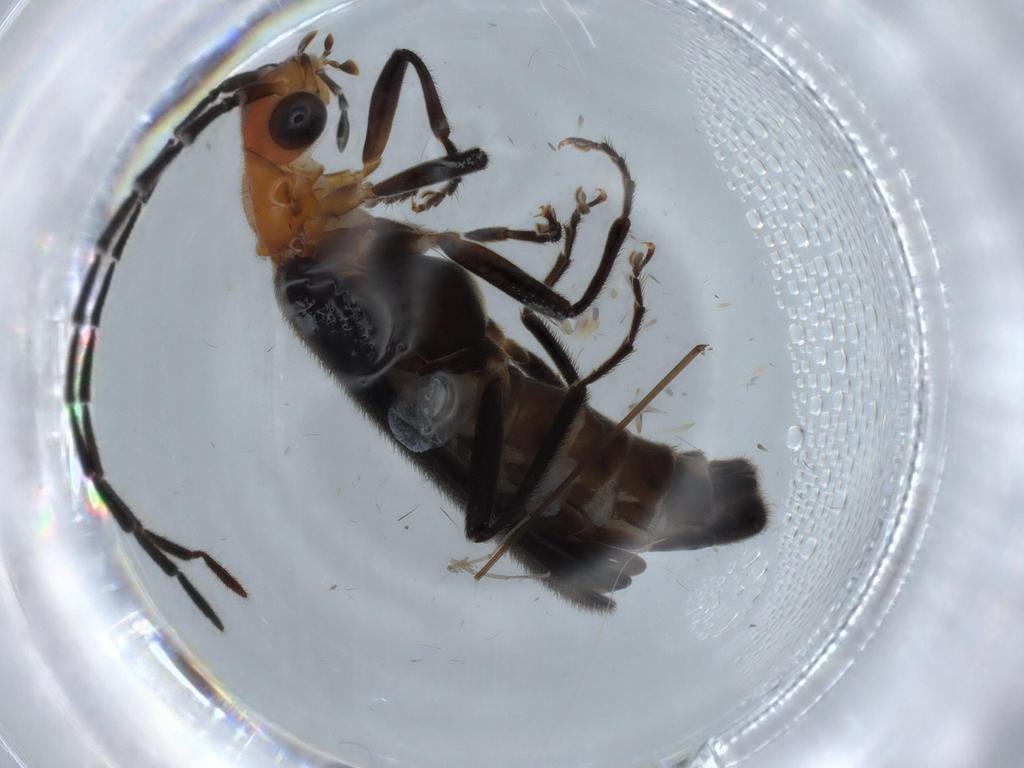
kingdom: Animalia
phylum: Arthropoda
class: Insecta
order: Coleoptera
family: Cantharidae
